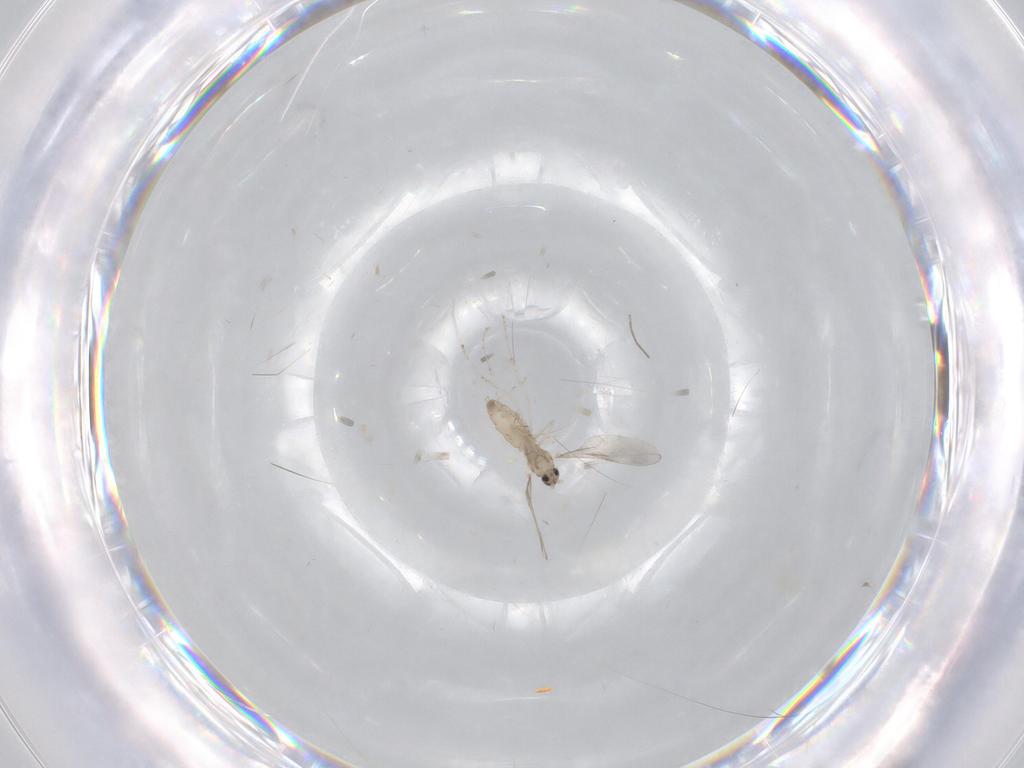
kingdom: Animalia
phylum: Arthropoda
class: Insecta
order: Diptera
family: Cecidomyiidae
